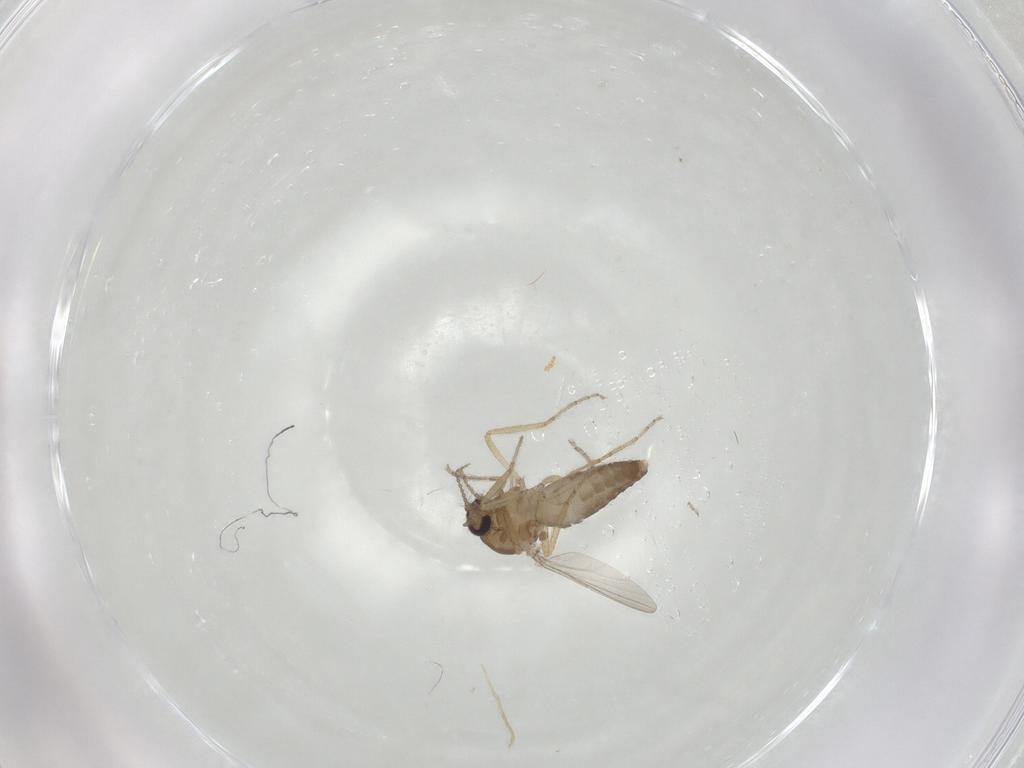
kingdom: Animalia
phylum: Arthropoda
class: Insecta
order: Diptera
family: Ceratopogonidae
